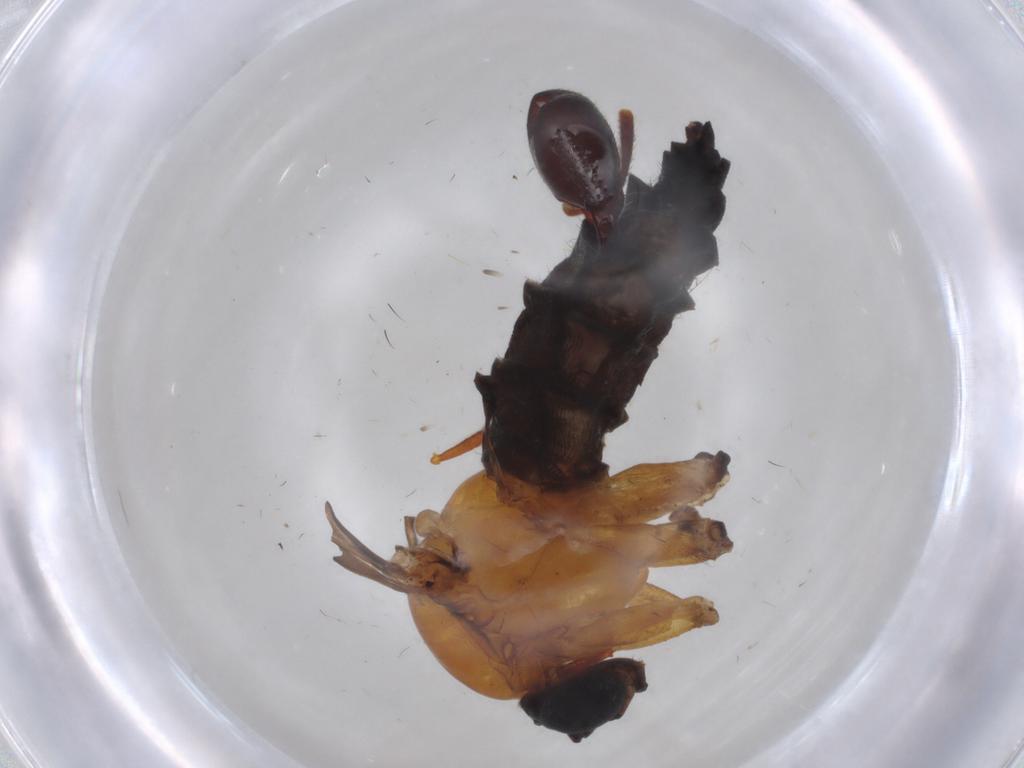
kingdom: Animalia
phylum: Arthropoda
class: Insecta
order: Diptera
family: Sciaridae
